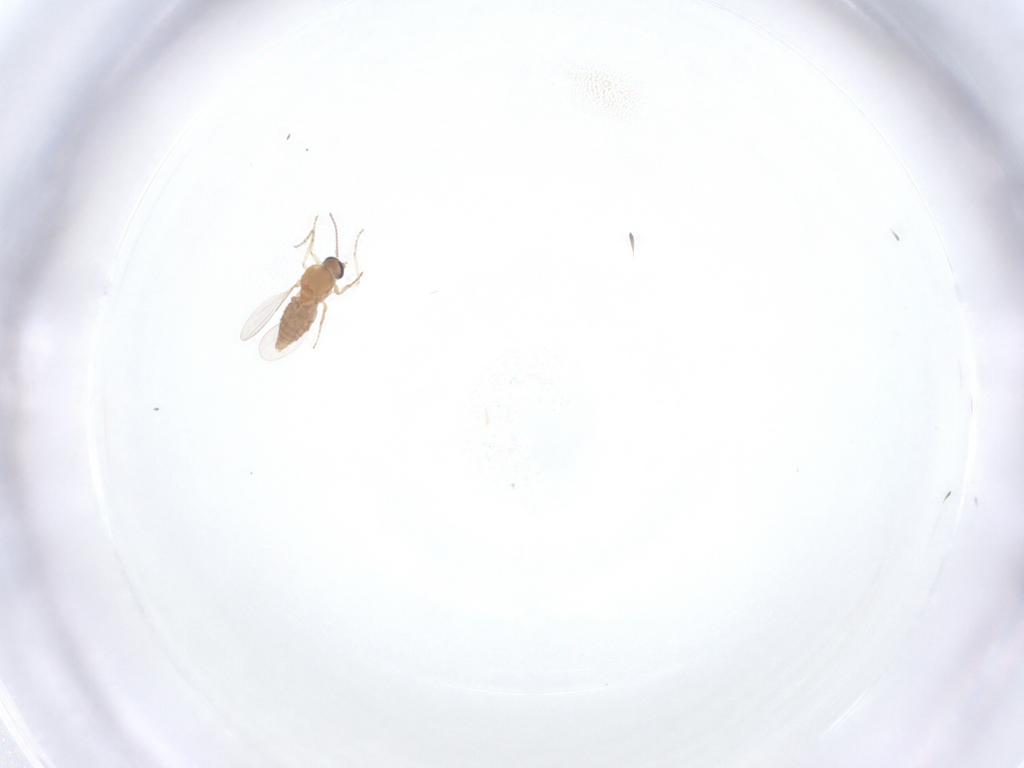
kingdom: Animalia
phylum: Arthropoda
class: Insecta
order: Diptera
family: Ceratopogonidae
